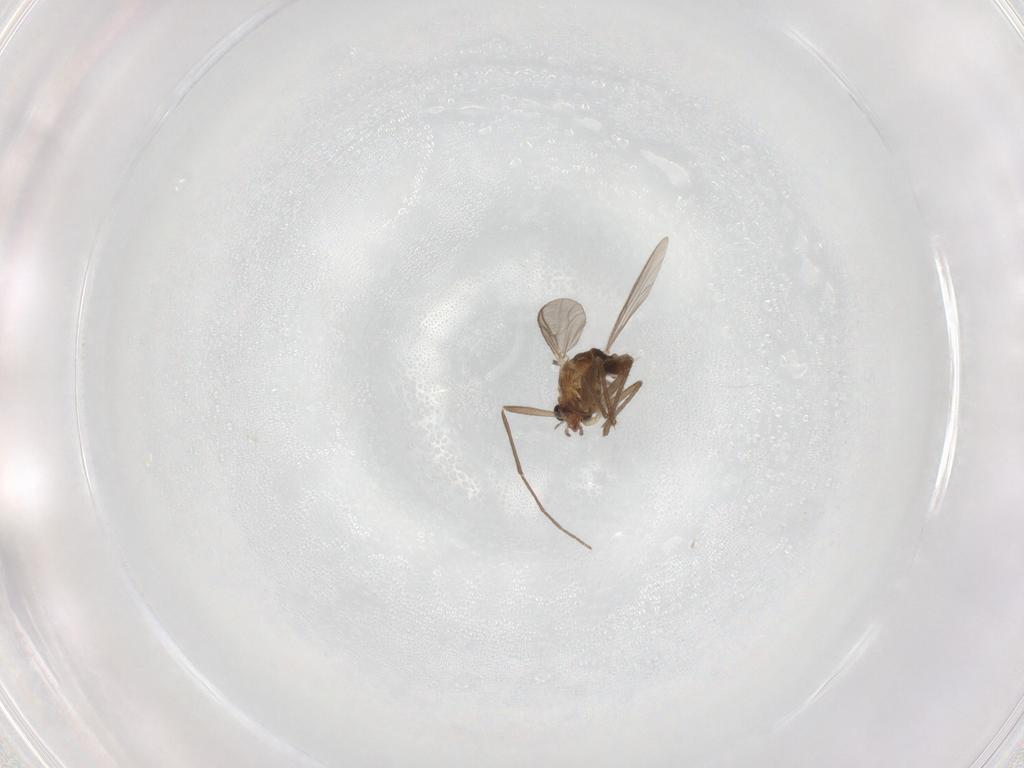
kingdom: Animalia
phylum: Arthropoda
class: Insecta
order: Diptera
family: Chironomidae
